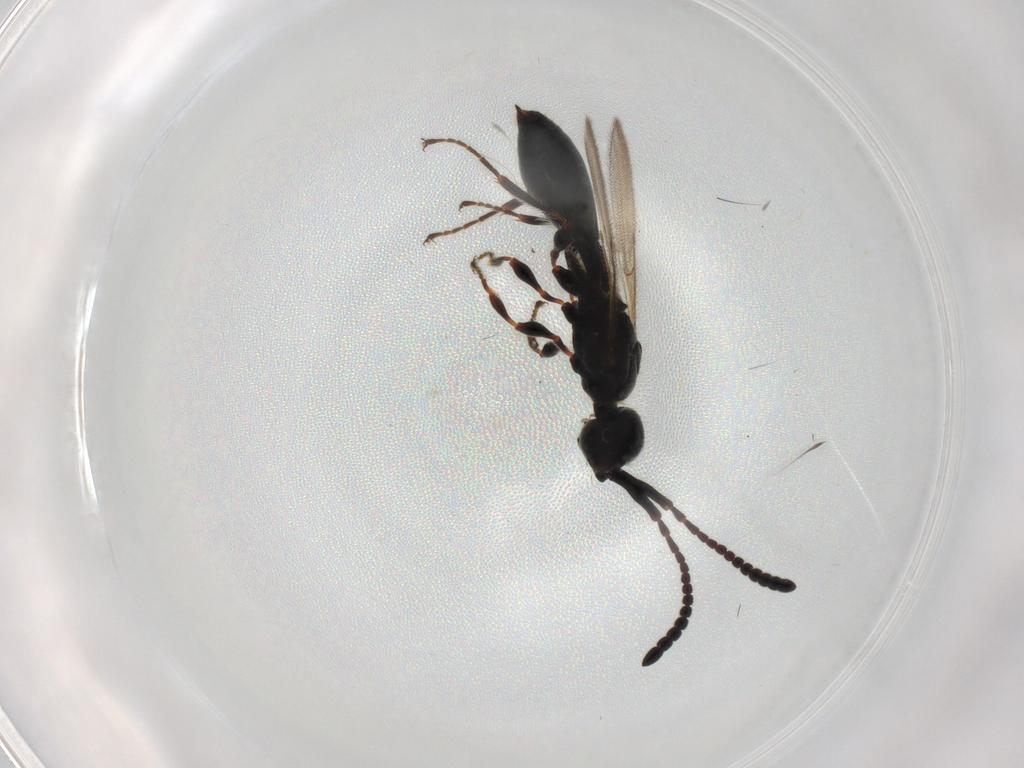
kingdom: Animalia
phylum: Arthropoda
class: Insecta
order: Hymenoptera
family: Diapriidae
